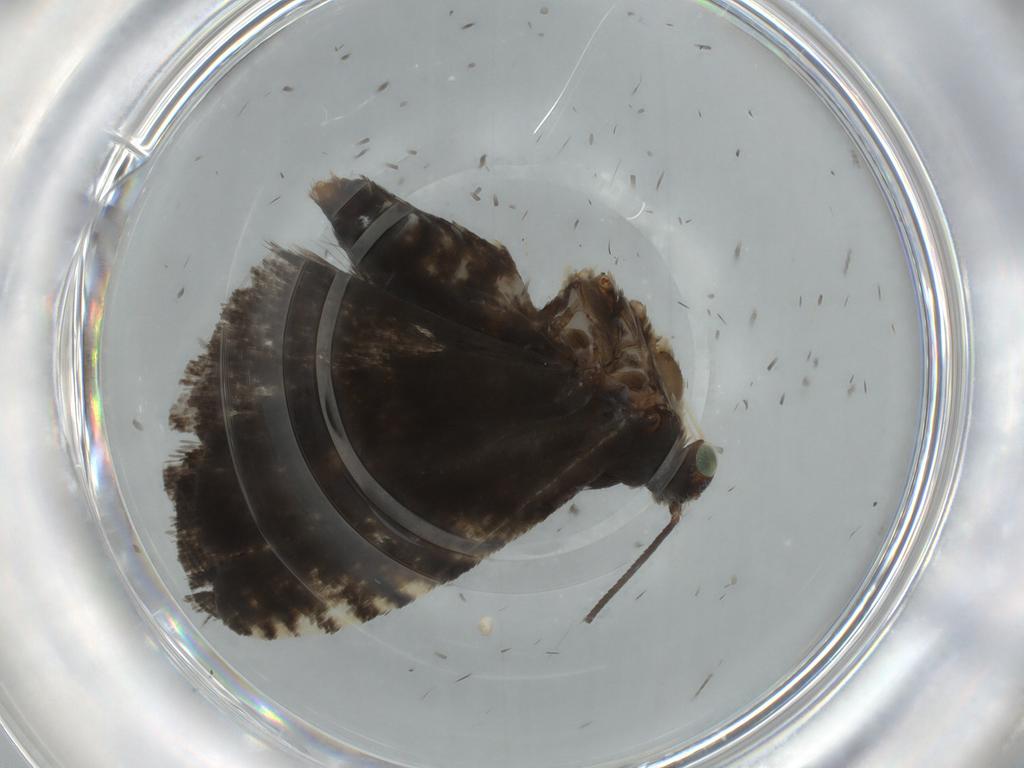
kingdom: Animalia
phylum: Arthropoda
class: Insecta
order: Lepidoptera
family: Tortricidae
